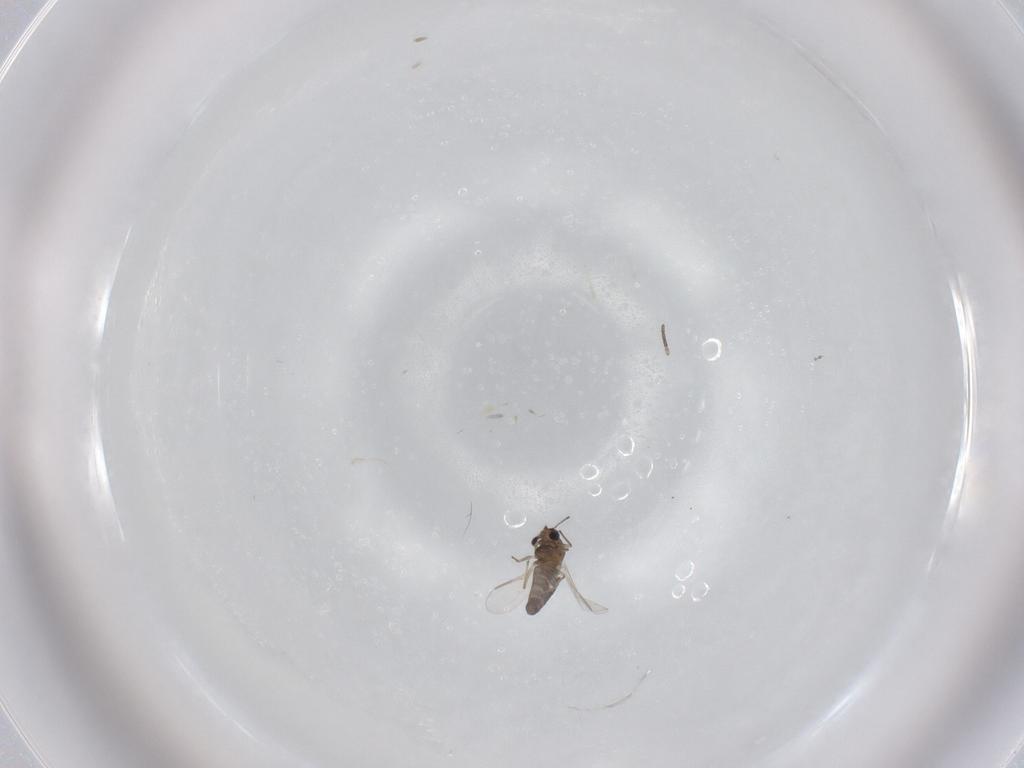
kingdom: Animalia
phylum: Arthropoda
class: Insecta
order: Diptera
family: Chironomidae
